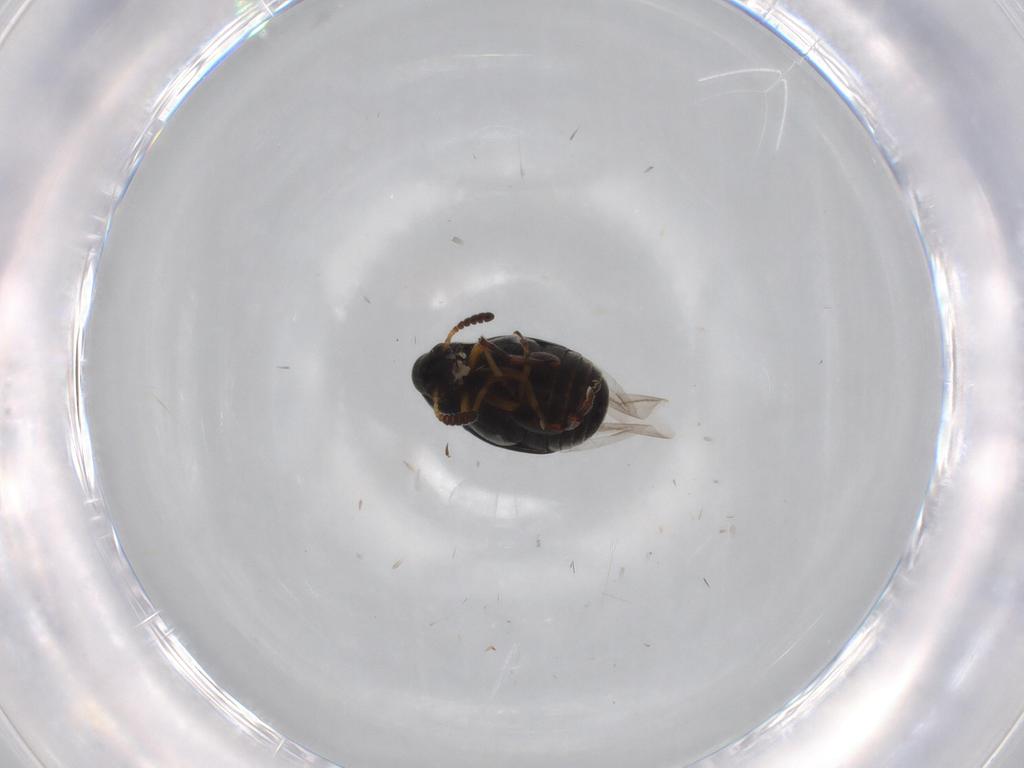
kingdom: Animalia
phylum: Arthropoda
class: Insecta
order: Coleoptera
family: Chrysomelidae
